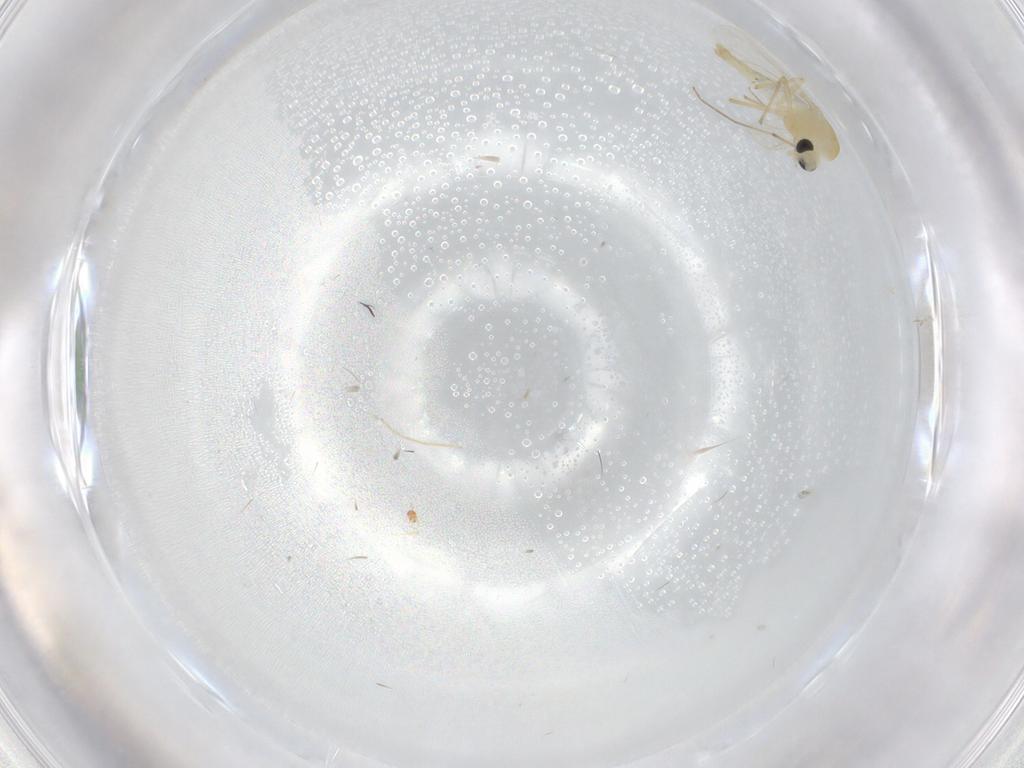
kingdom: Animalia
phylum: Arthropoda
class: Insecta
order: Diptera
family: Chironomidae
